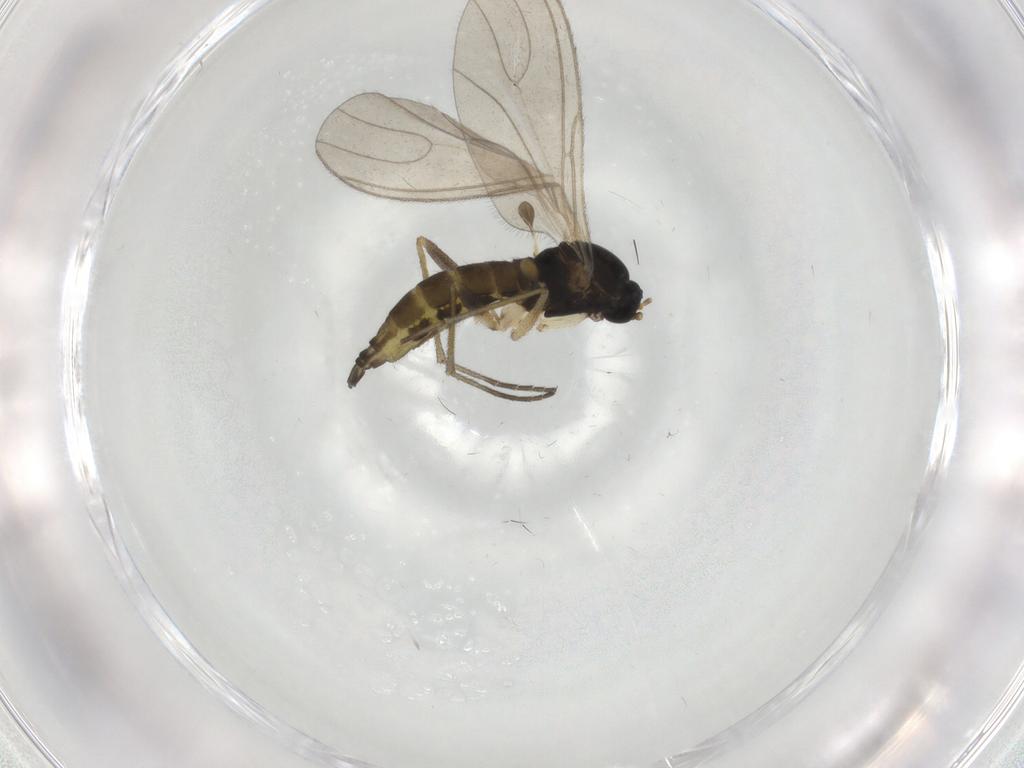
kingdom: Animalia
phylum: Arthropoda
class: Insecta
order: Diptera
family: Sciaridae
